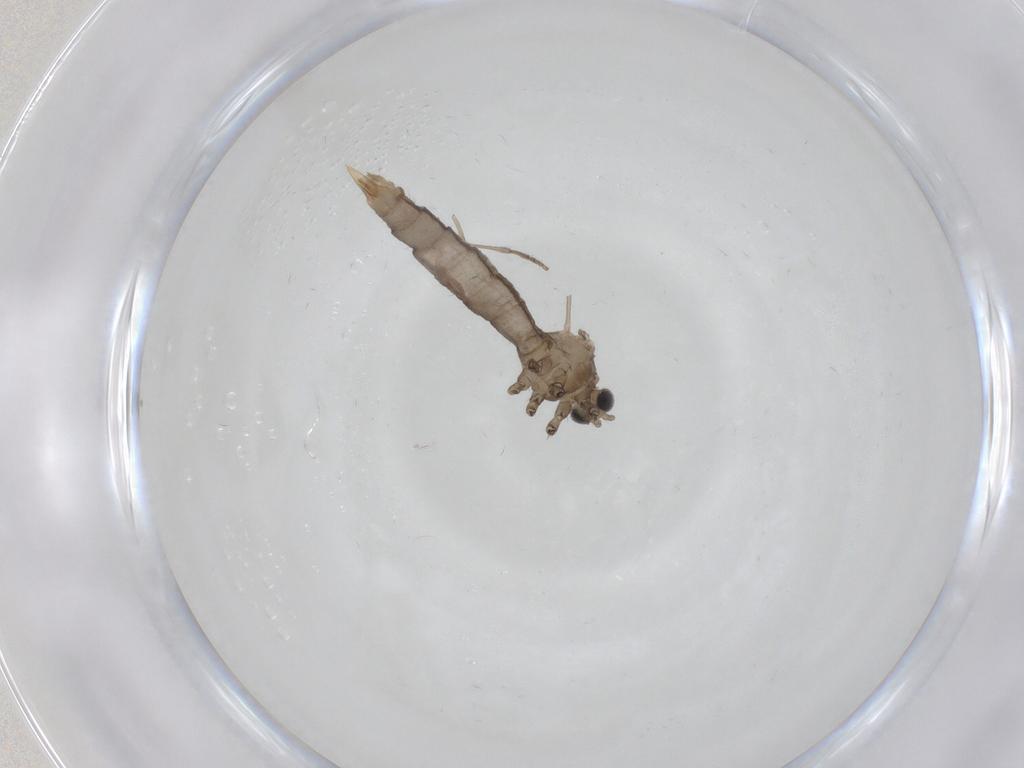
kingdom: Animalia
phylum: Arthropoda
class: Insecta
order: Diptera
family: Limoniidae
